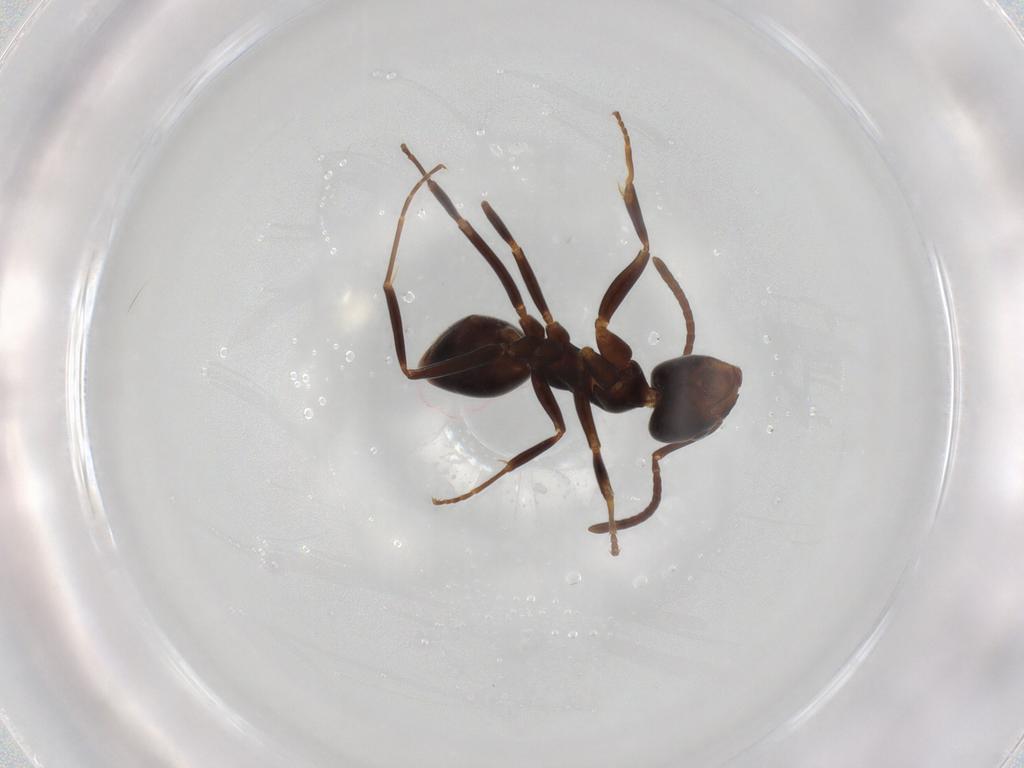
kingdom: Animalia
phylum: Arthropoda
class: Insecta
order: Hymenoptera
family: Formicidae
